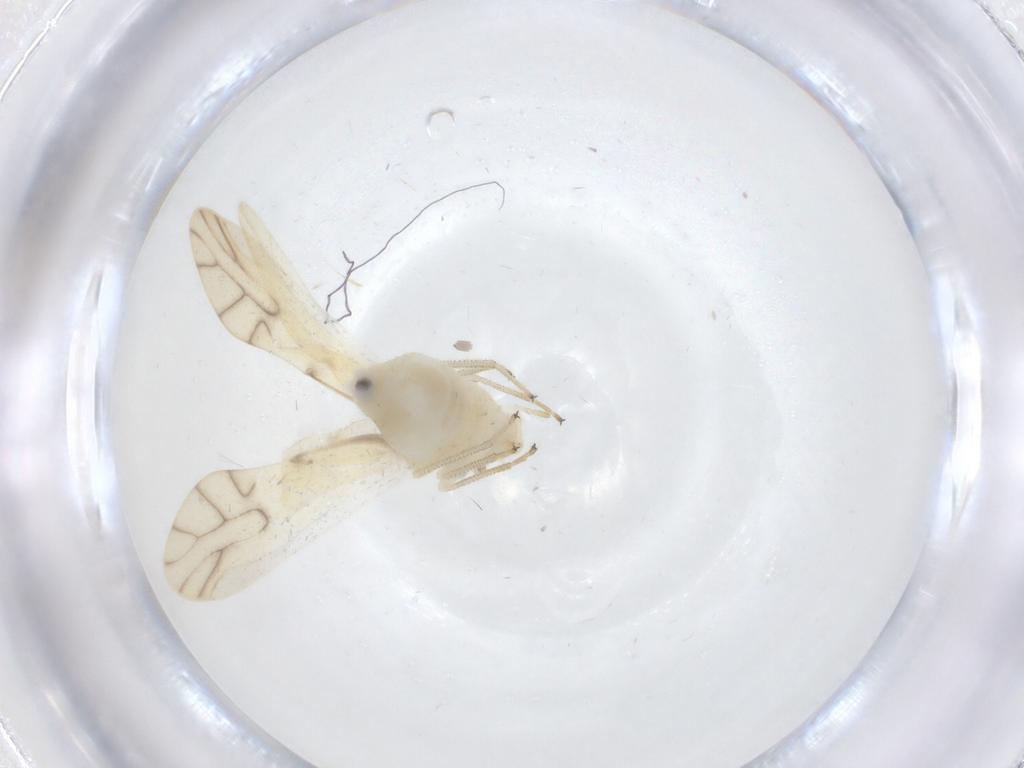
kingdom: Animalia
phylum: Arthropoda
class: Insecta
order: Psocodea
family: Caeciliusidae
